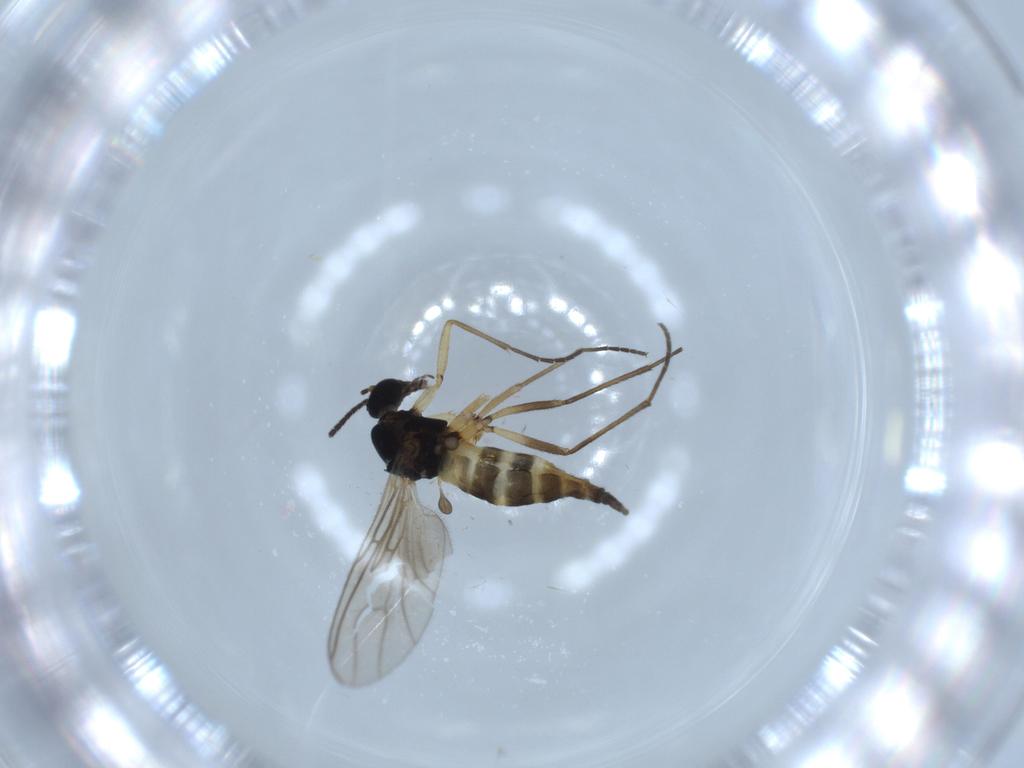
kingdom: Animalia
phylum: Arthropoda
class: Insecta
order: Diptera
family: Sciaridae
